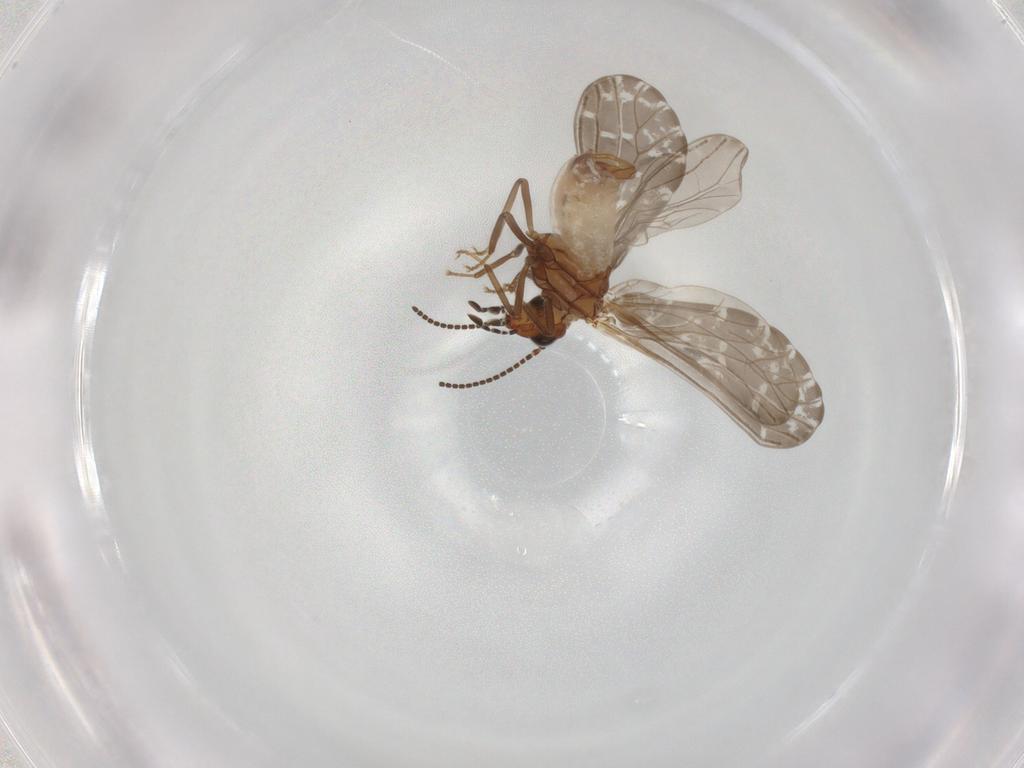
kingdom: Animalia
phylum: Arthropoda
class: Insecta
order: Neuroptera
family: Coniopterygidae
